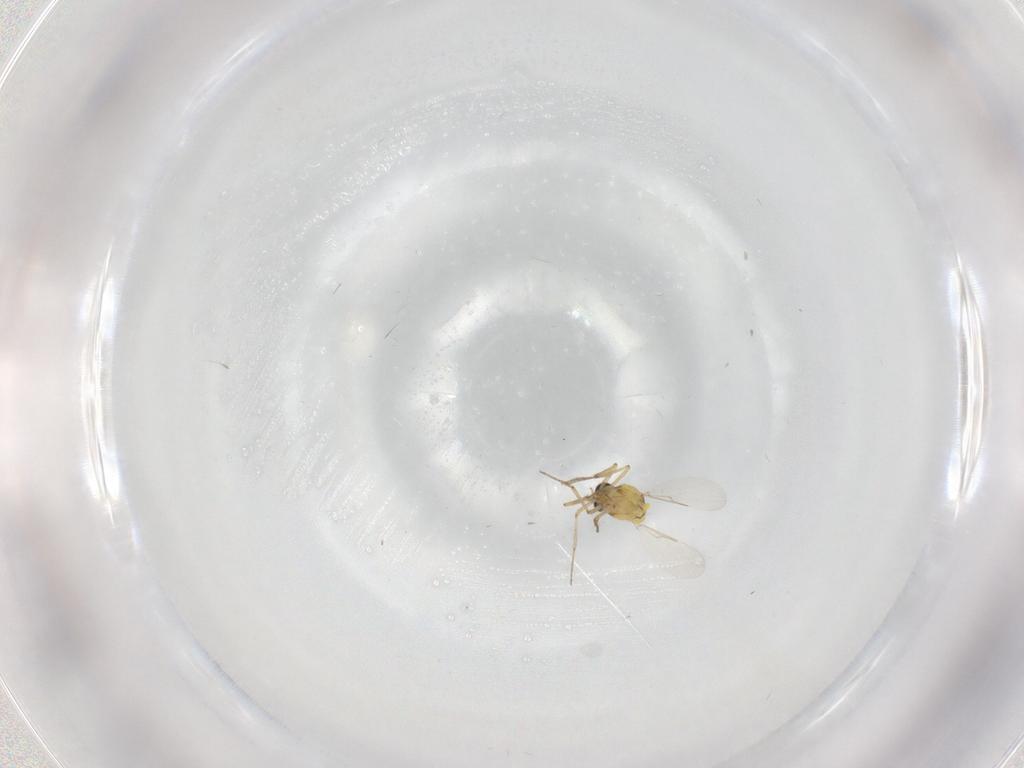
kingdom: Animalia
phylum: Arthropoda
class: Insecta
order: Diptera
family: Ceratopogonidae
